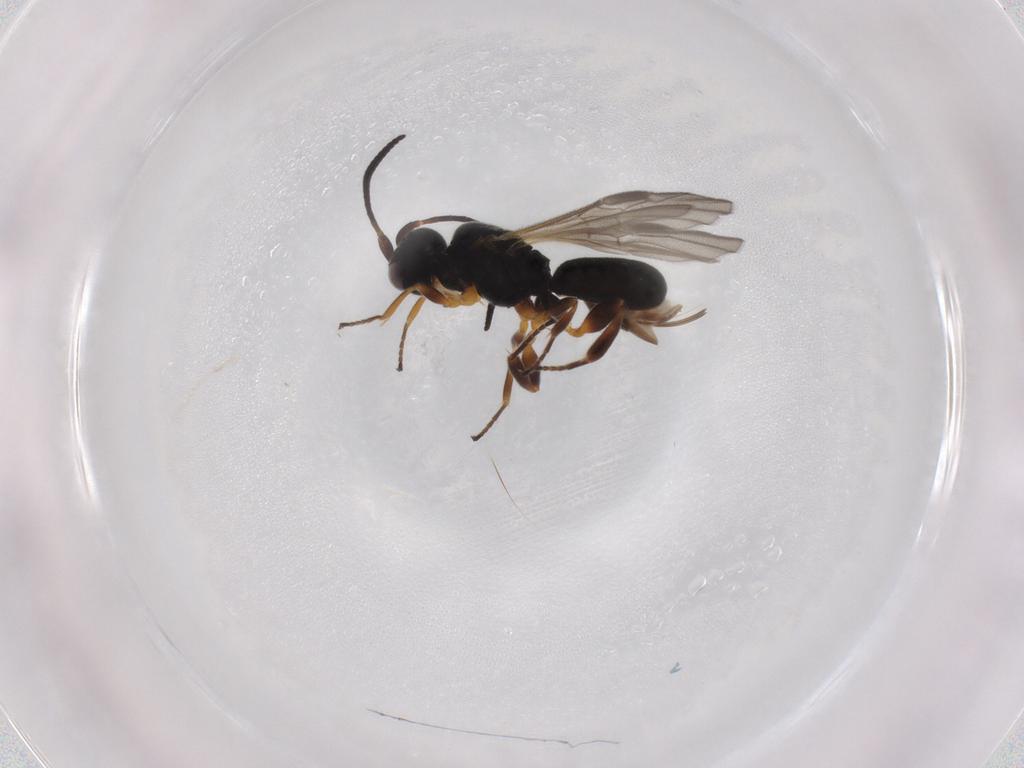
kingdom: Animalia
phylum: Arthropoda
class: Insecta
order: Hymenoptera
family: Braconidae
